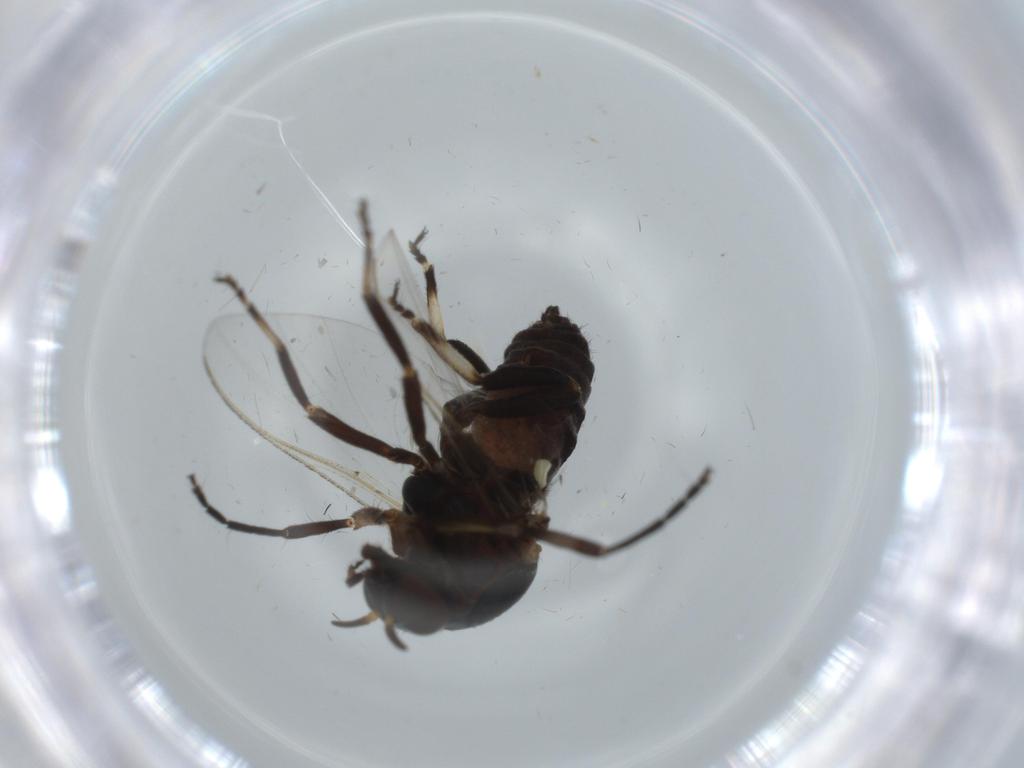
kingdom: Animalia
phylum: Arthropoda
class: Insecta
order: Diptera
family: Milichiidae
